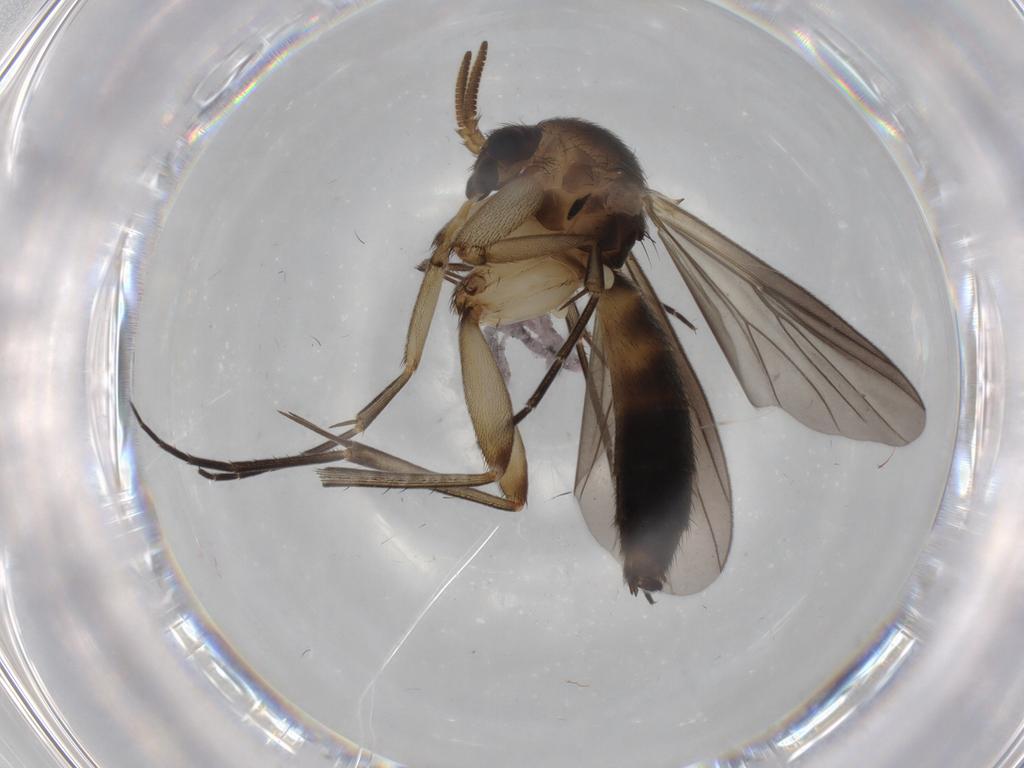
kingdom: Animalia
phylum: Arthropoda
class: Insecta
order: Diptera
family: Mycetophilidae
